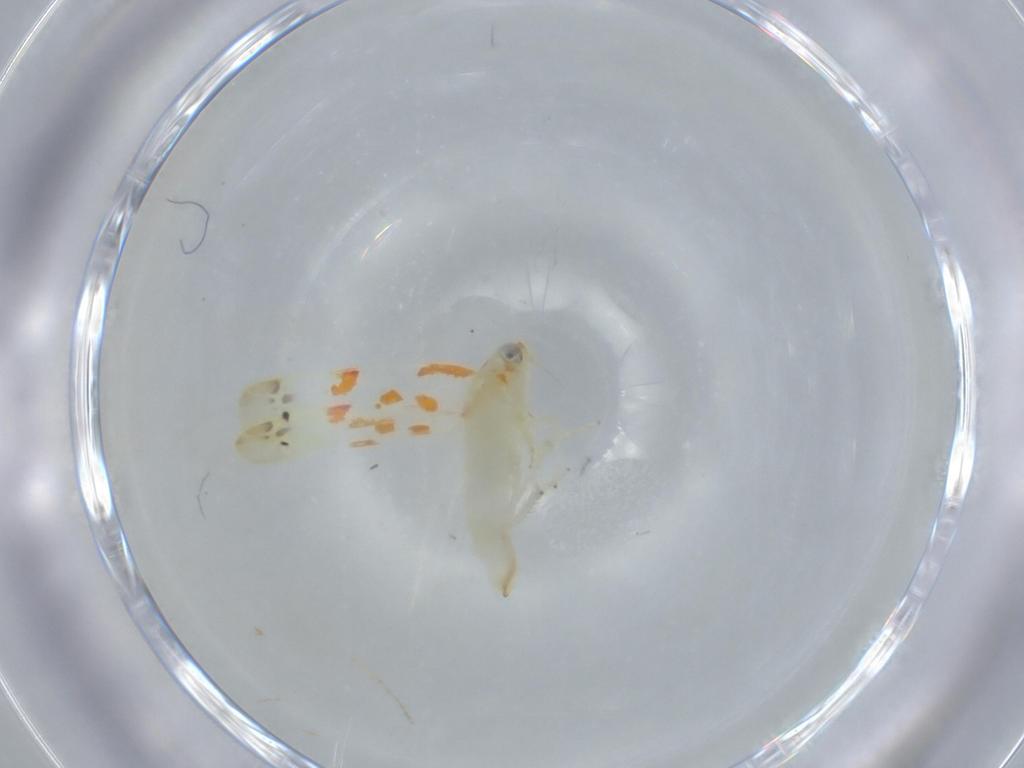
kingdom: Animalia
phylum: Arthropoda
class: Insecta
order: Hemiptera
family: Cicadellidae
